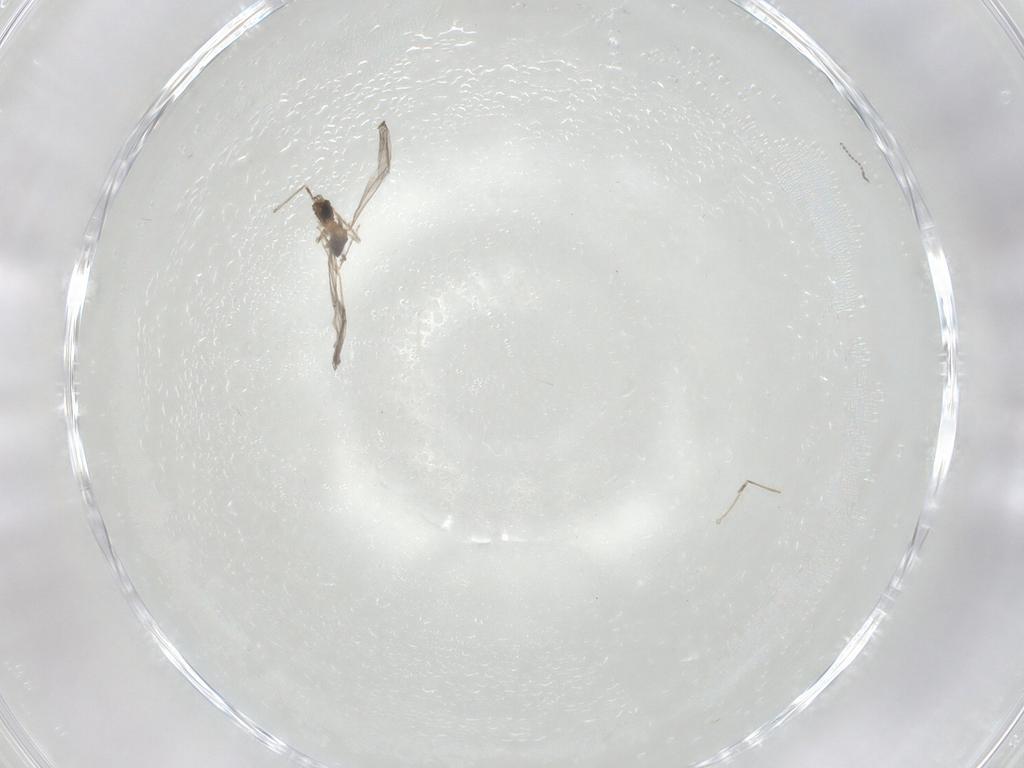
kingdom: Animalia
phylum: Arthropoda
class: Insecta
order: Diptera
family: Cecidomyiidae
